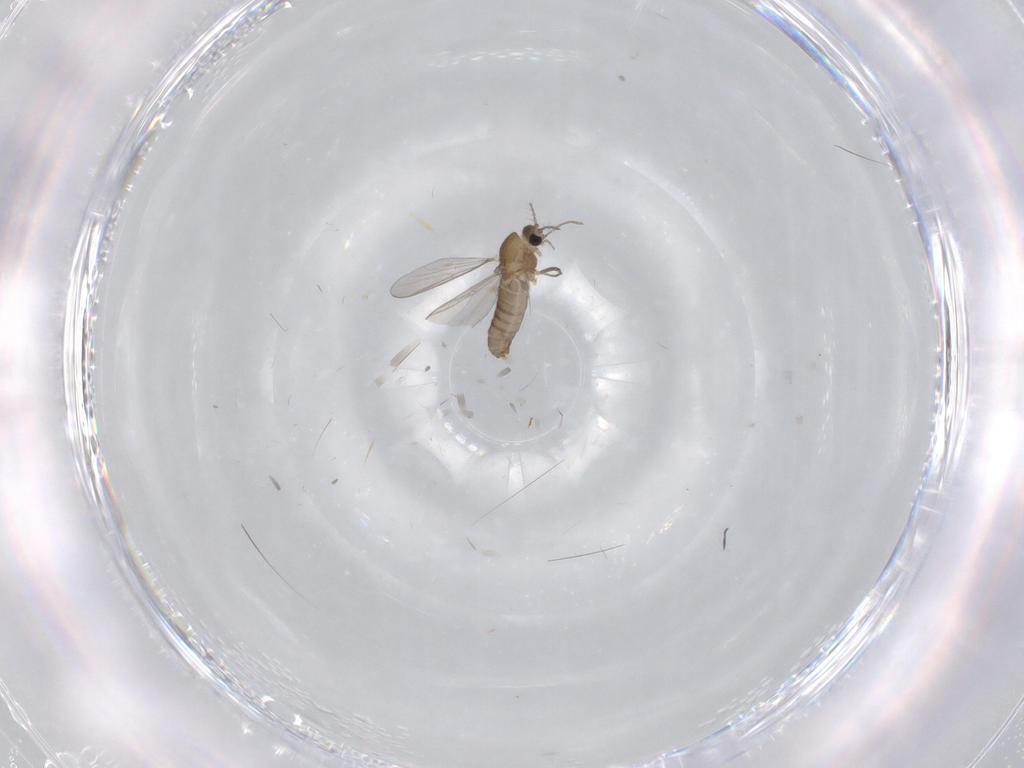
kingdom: Animalia
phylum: Arthropoda
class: Insecta
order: Diptera
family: Chironomidae
